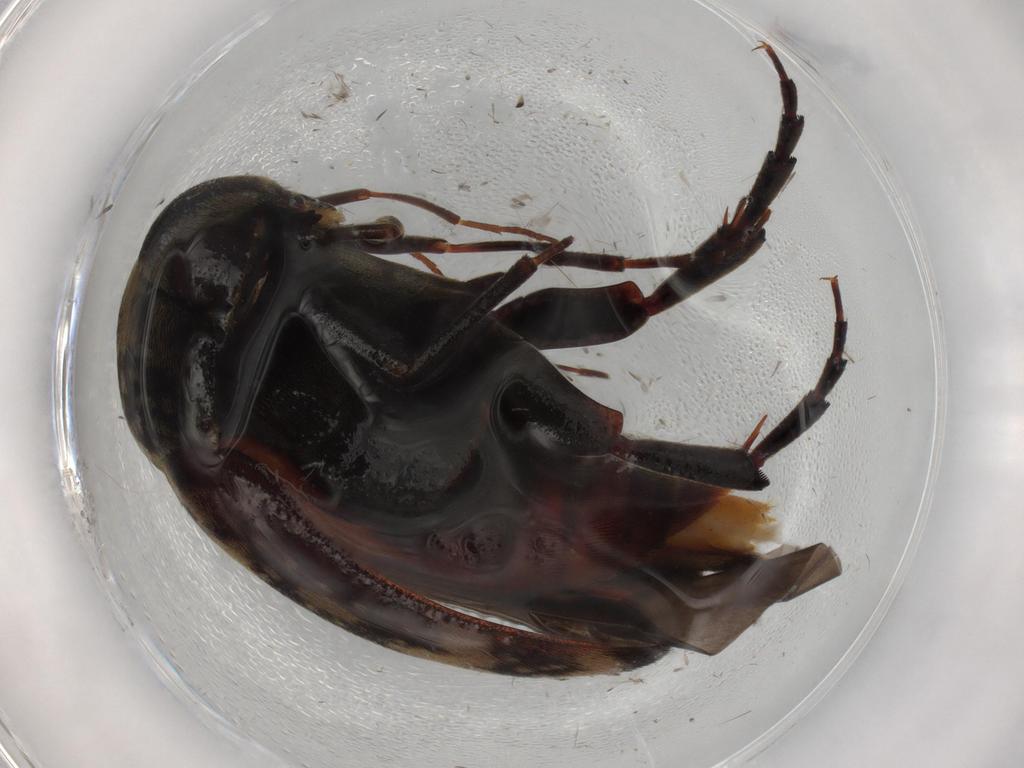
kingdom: Animalia
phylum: Arthropoda
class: Insecta
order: Coleoptera
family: Mordellidae
